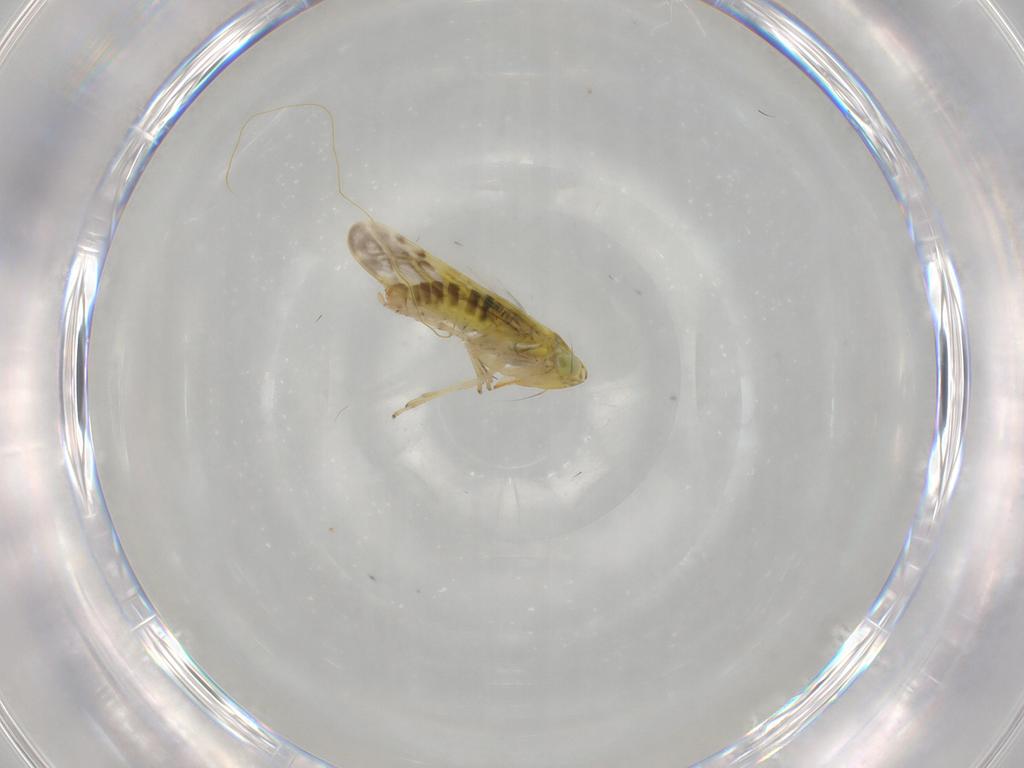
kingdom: Animalia
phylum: Arthropoda
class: Insecta
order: Hemiptera
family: Cicadellidae
